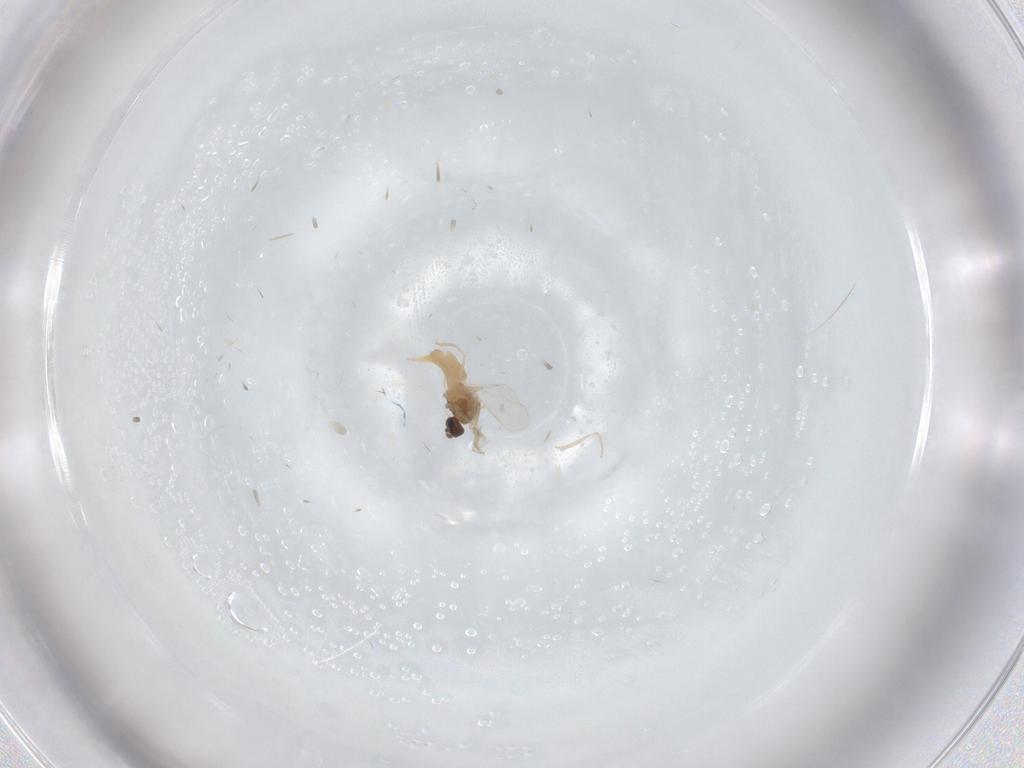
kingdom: Animalia
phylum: Arthropoda
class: Insecta
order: Diptera
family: Cecidomyiidae
